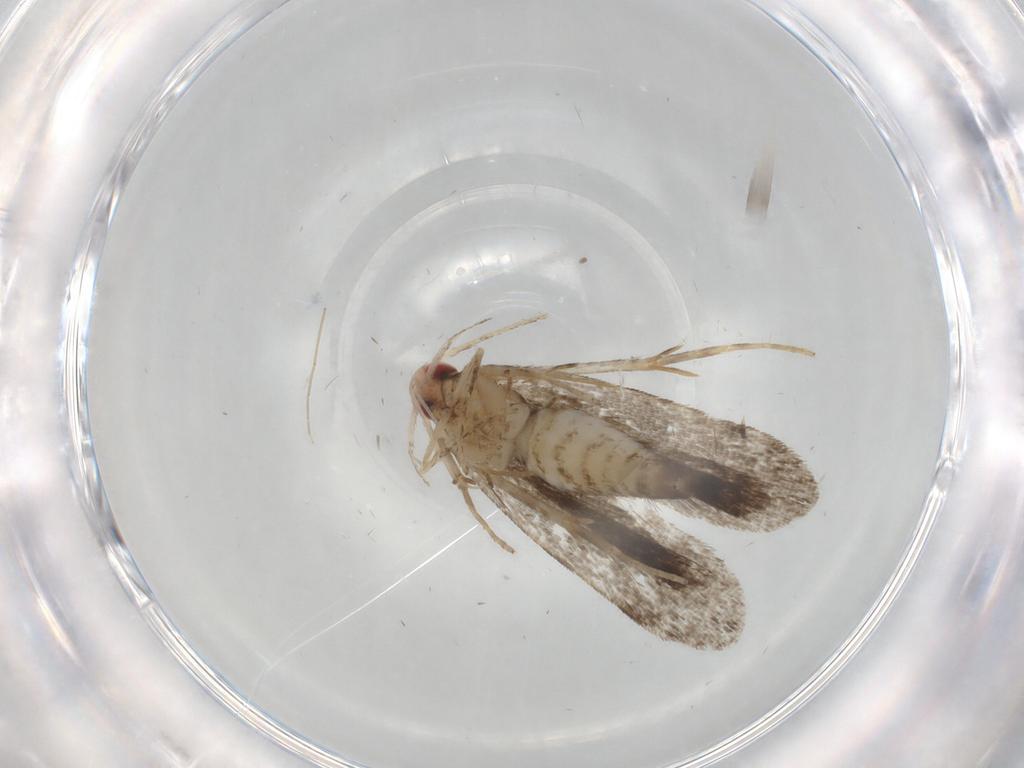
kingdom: Animalia
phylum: Arthropoda
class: Insecta
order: Lepidoptera
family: Gelechiidae
